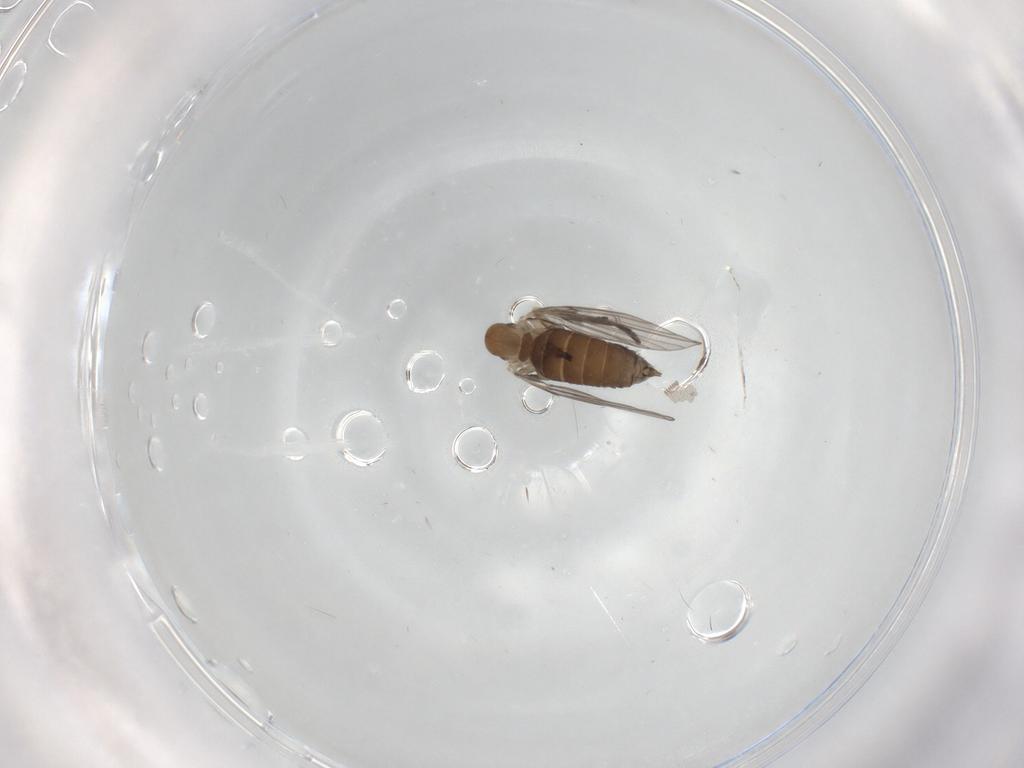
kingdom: Animalia
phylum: Arthropoda
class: Insecta
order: Diptera
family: Ceratopogonidae
